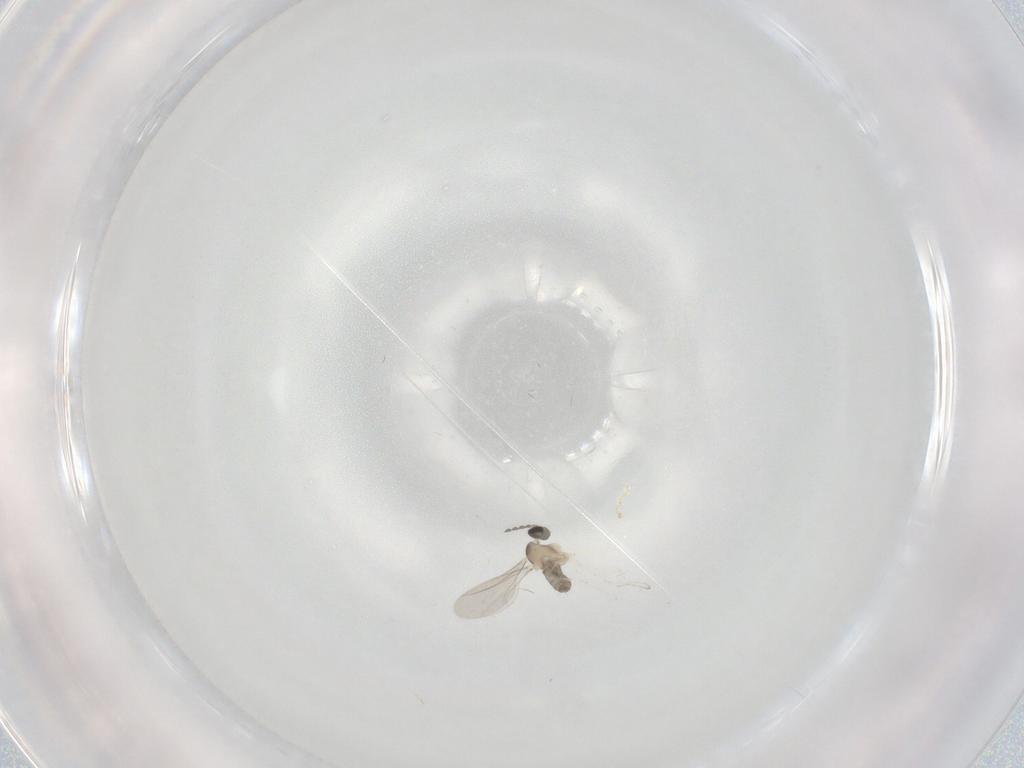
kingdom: Animalia
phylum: Arthropoda
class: Insecta
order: Diptera
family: Cecidomyiidae
